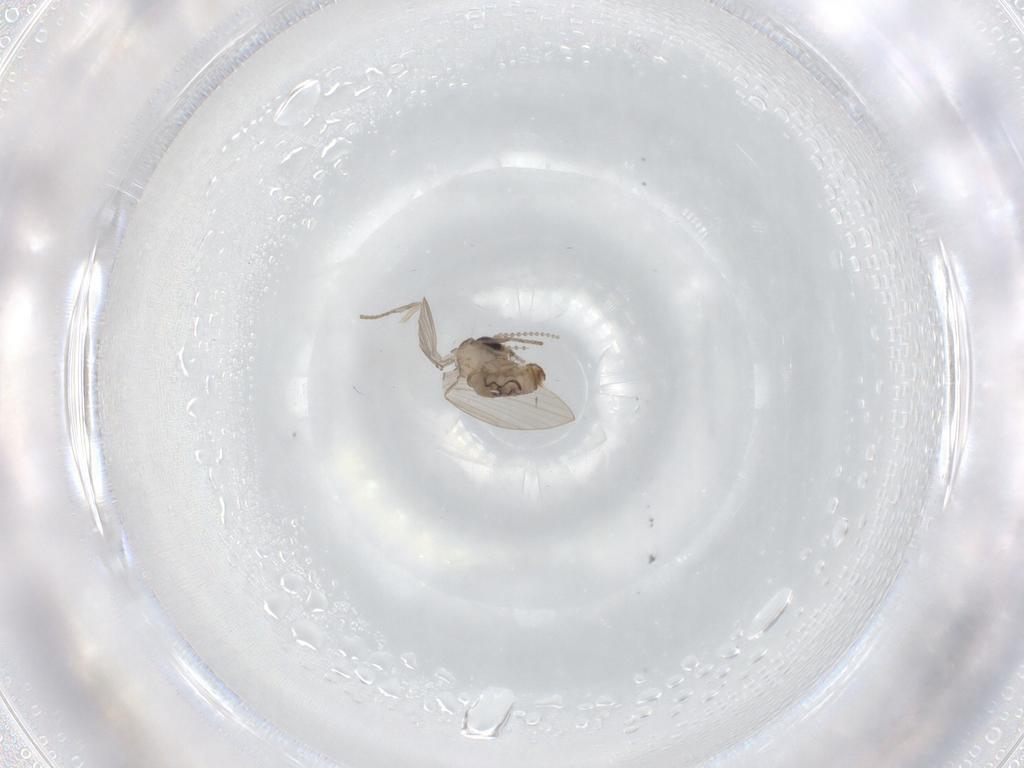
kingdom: Animalia
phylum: Arthropoda
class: Insecta
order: Diptera
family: Psychodidae
